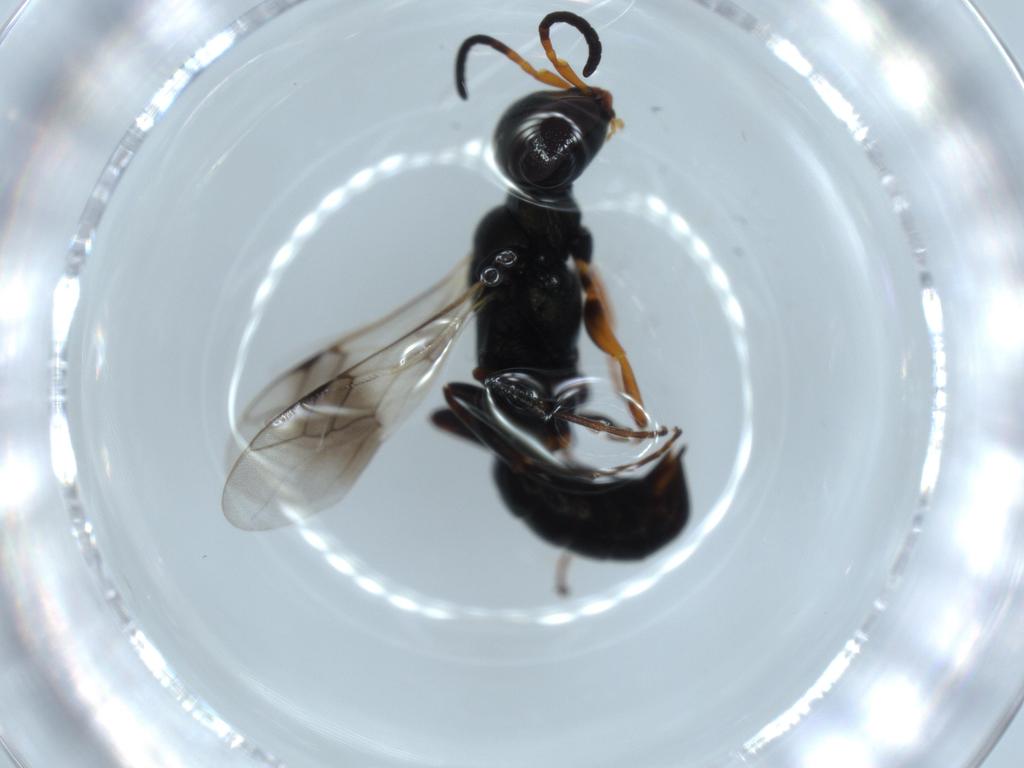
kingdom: Animalia
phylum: Arthropoda
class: Insecta
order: Hymenoptera
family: Crabronidae
